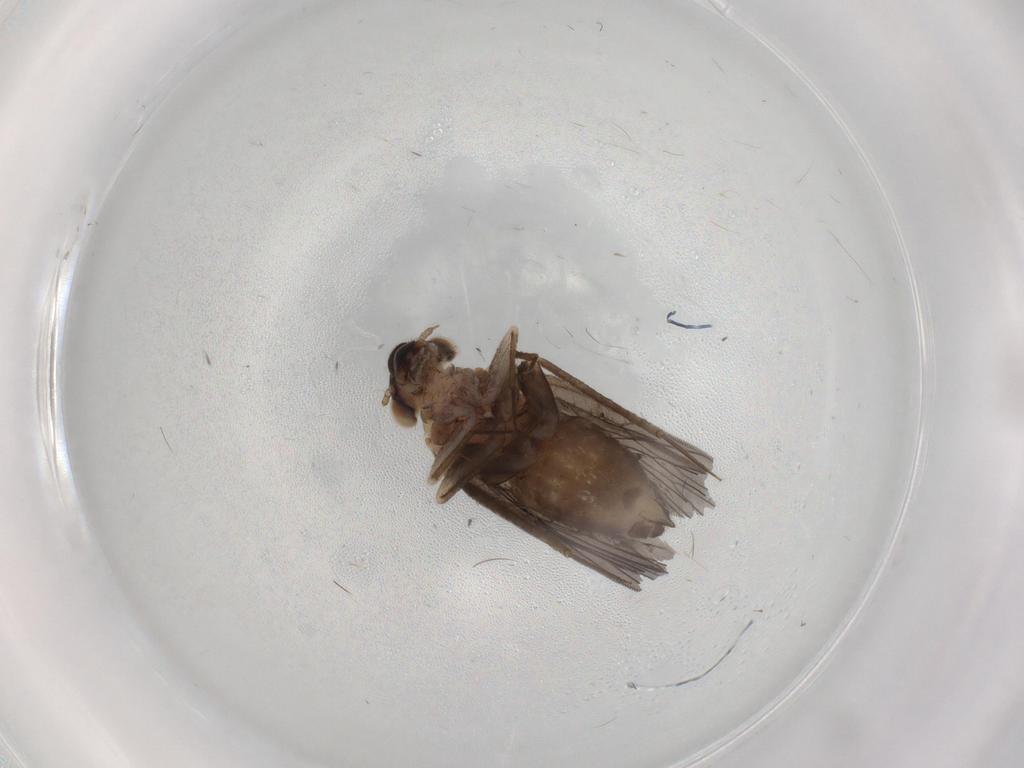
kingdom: Animalia
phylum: Arthropoda
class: Insecta
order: Psocodea
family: Lepidopsocidae
